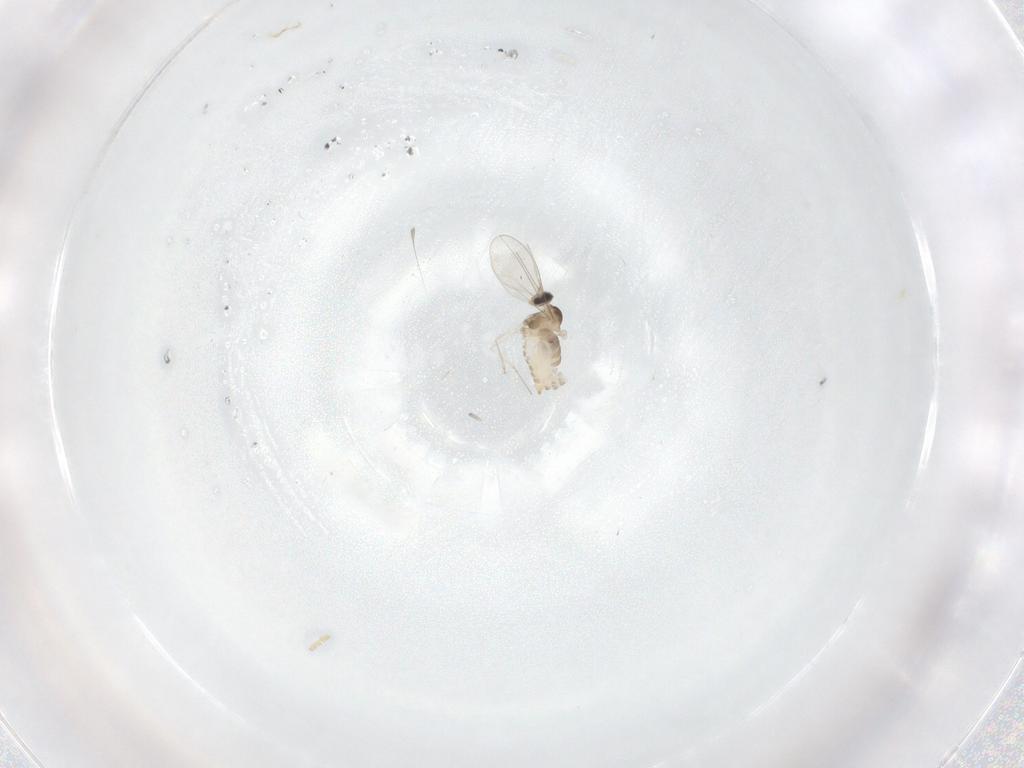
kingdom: Animalia
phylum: Arthropoda
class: Insecta
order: Diptera
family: Cecidomyiidae
